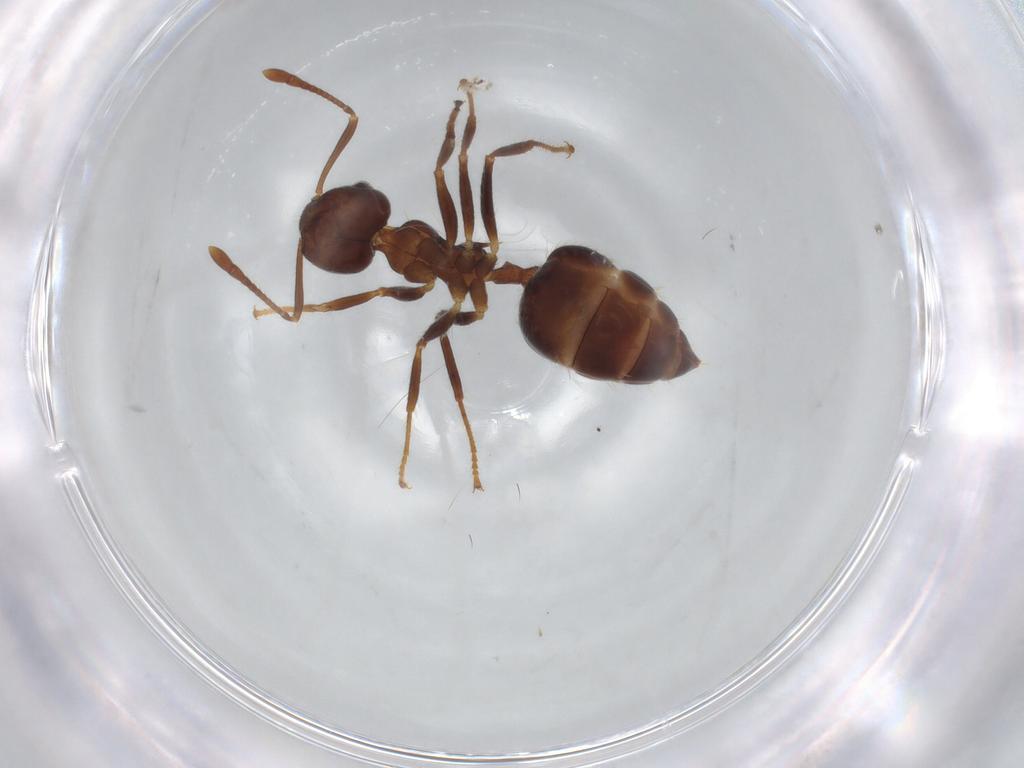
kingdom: Animalia
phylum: Arthropoda
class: Insecta
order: Hymenoptera
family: Formicidae
